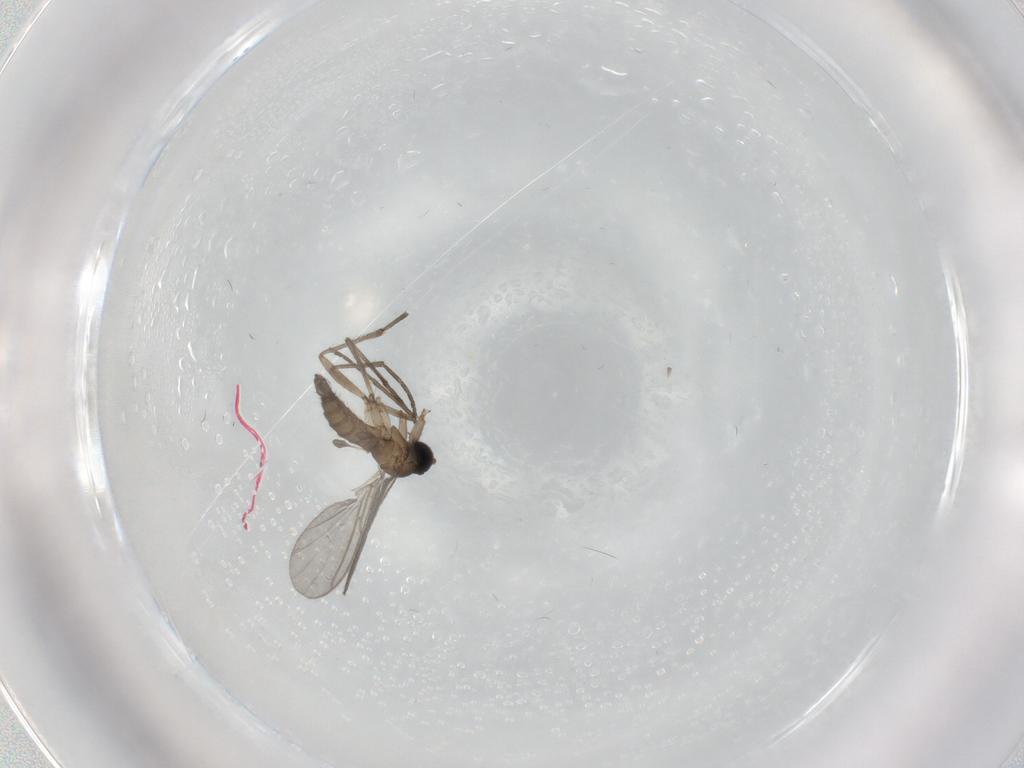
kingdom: Animalia
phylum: Arthropoda
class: Insecta
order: Diptera
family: Sciaridae
